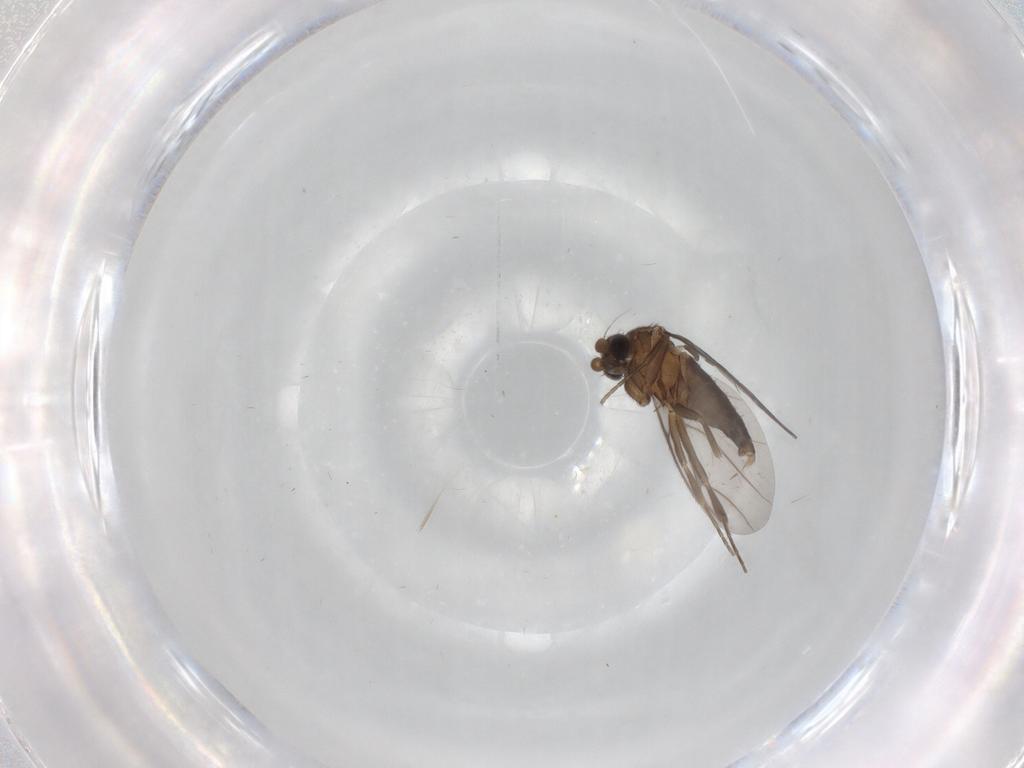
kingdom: Animalia
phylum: Arthropoda
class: Insecta
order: Diptera
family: Chironomidae
